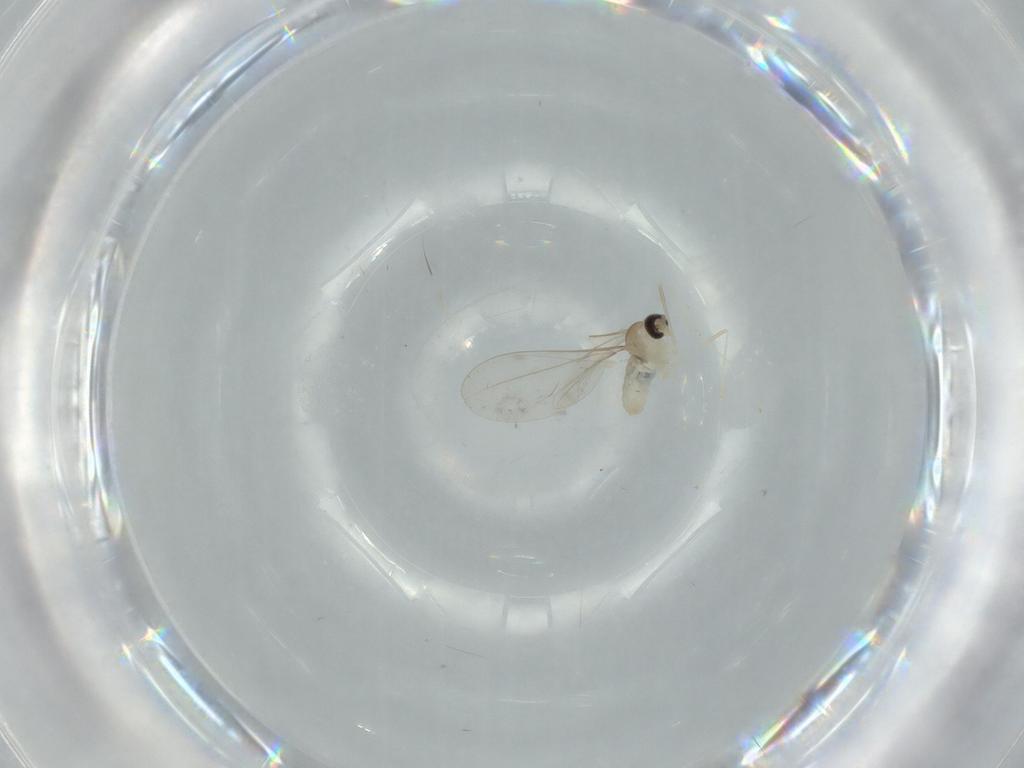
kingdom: Animalia
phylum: Arthropoda
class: Insecta
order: Diptera
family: Cecidomyiidae
